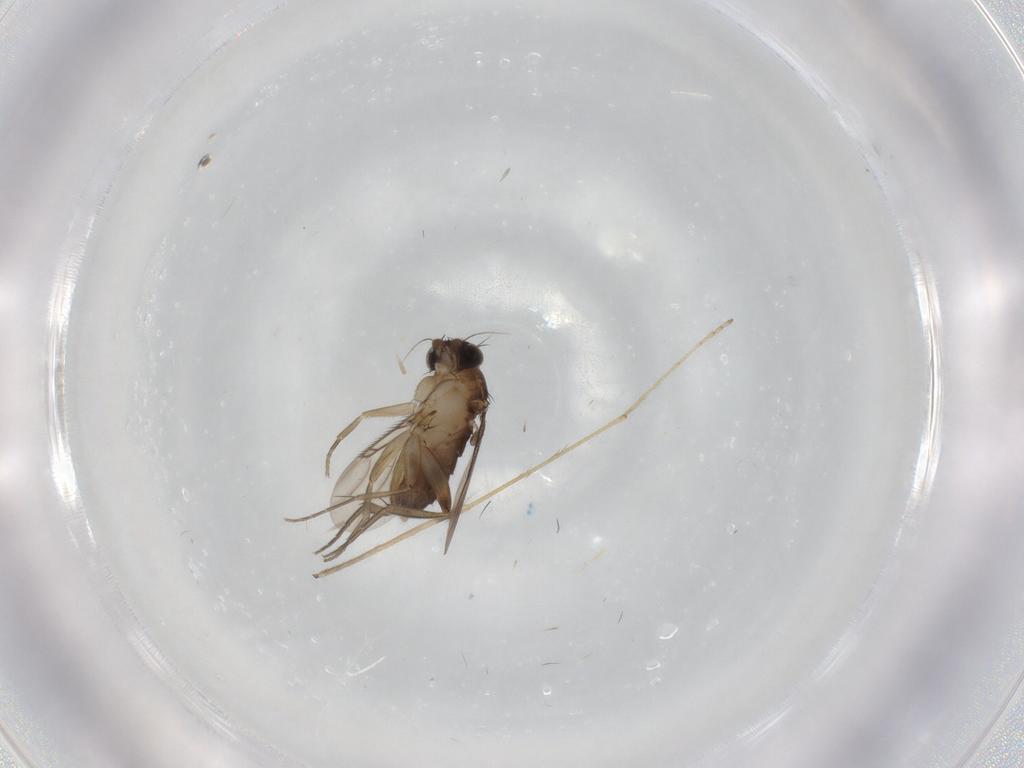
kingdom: Animalia
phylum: Arthropoda
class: Insecta
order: Diptera
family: Phoridae
